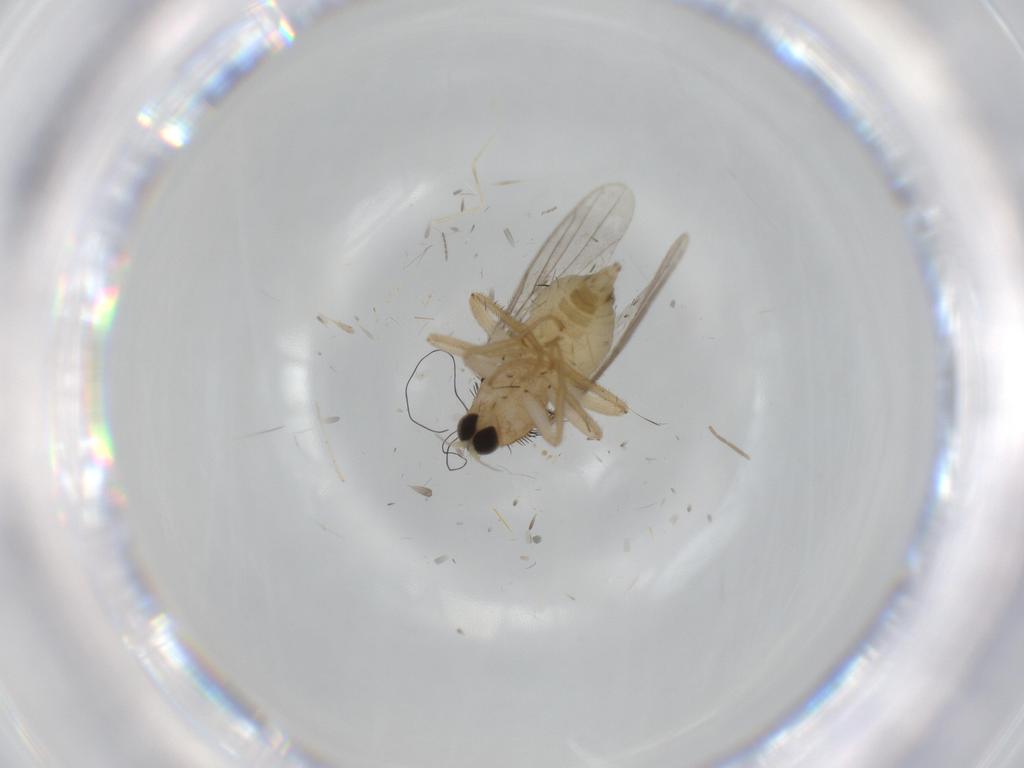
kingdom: Animalia
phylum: Arthropoda
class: Insecta
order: Diptera
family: Hybotidae
